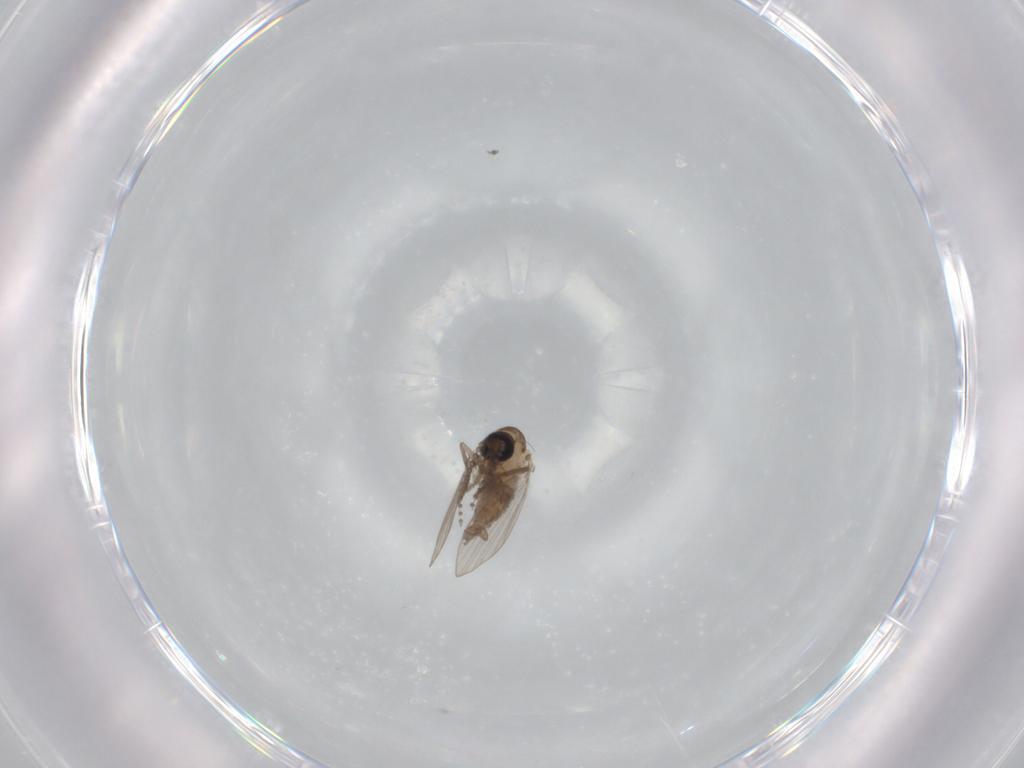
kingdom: Animalia
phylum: Arthropoda
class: Insecta
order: Diptera
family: Psychodidae
